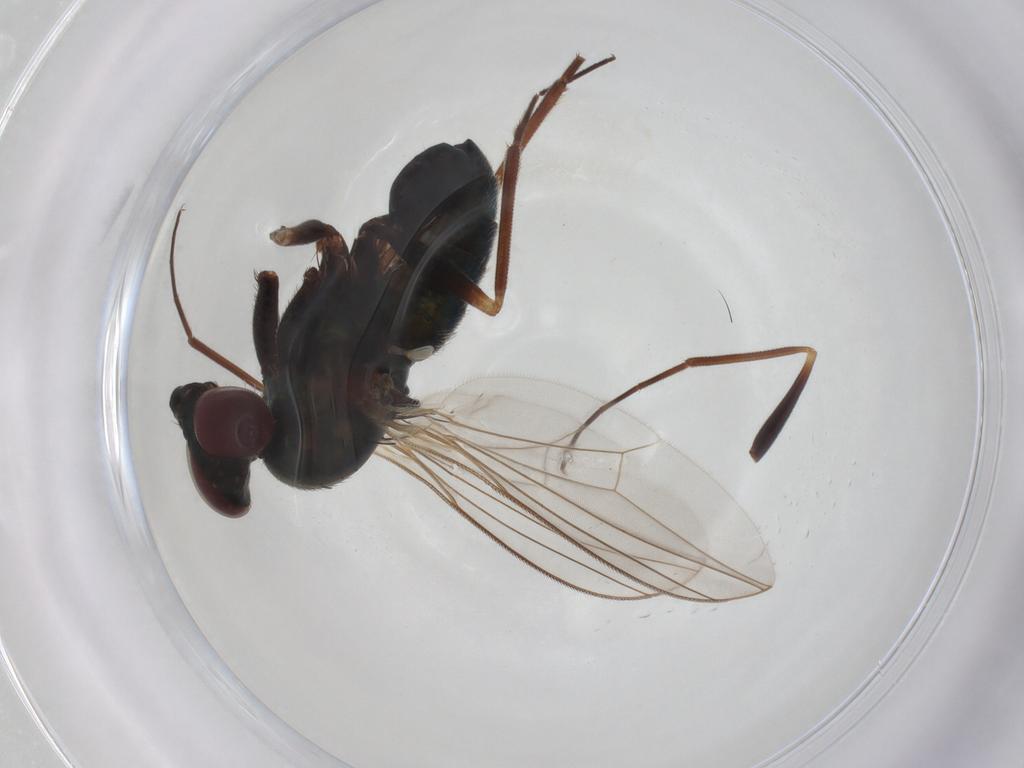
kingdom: Animalia
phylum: Arthropoda
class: Insecta
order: Diptera
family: Dolichopodidae
